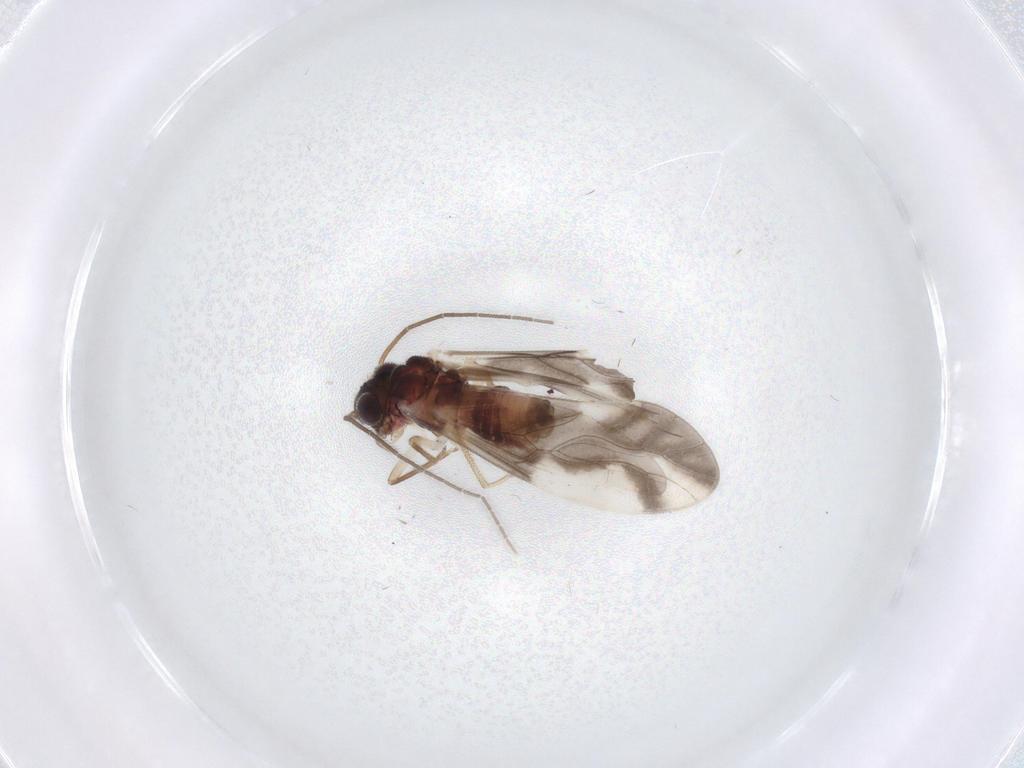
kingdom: Animalia
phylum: Arthropoda
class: Insecta
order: Psocodea
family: Caeciliusidae
